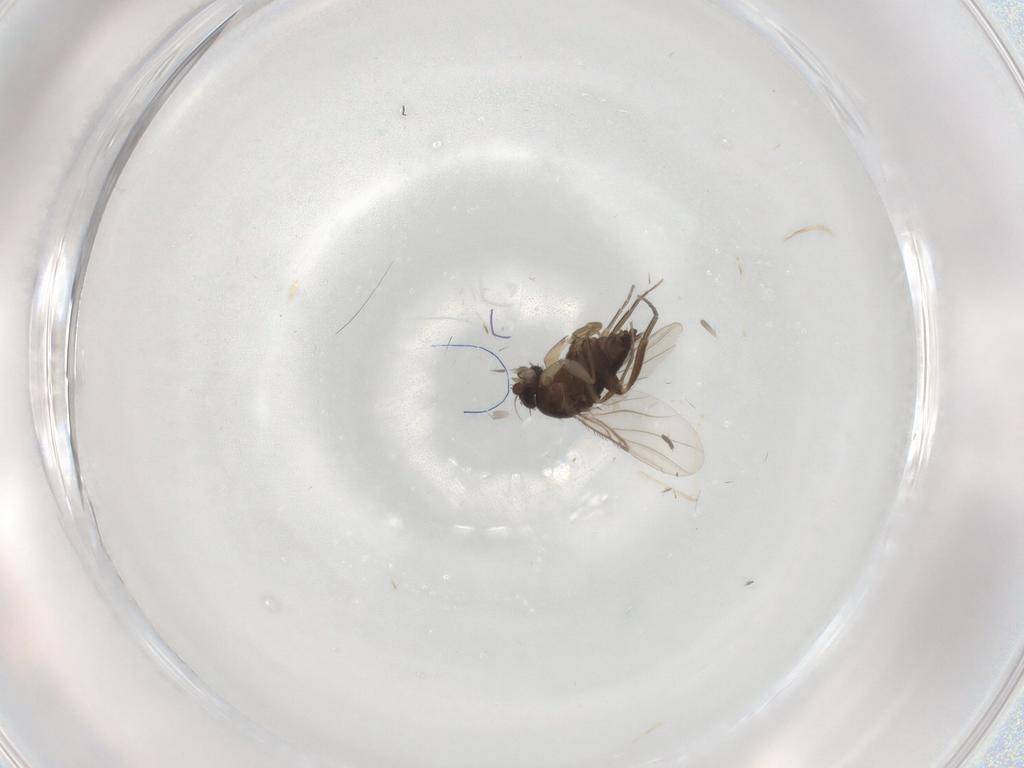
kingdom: Animalia
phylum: Arthropoda
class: Insecta
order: Diptera
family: Cecidomyiidae
